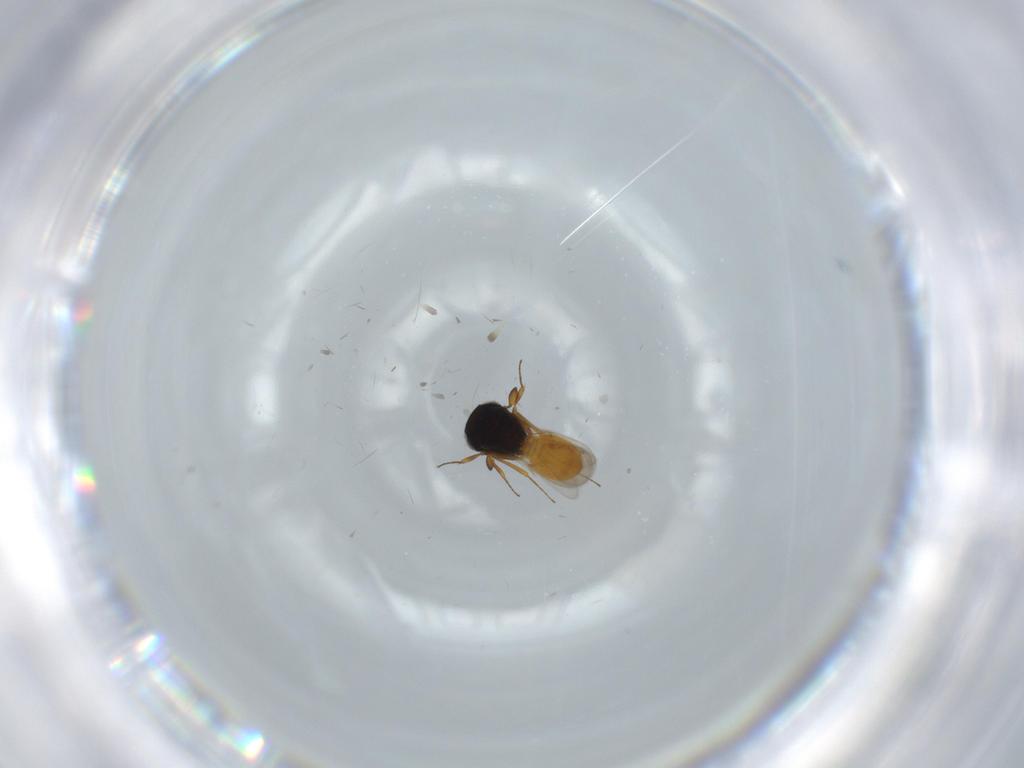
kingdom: Animalia
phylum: Arthropoda
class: Insecta
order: Hymenoptera
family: Scelionidae
